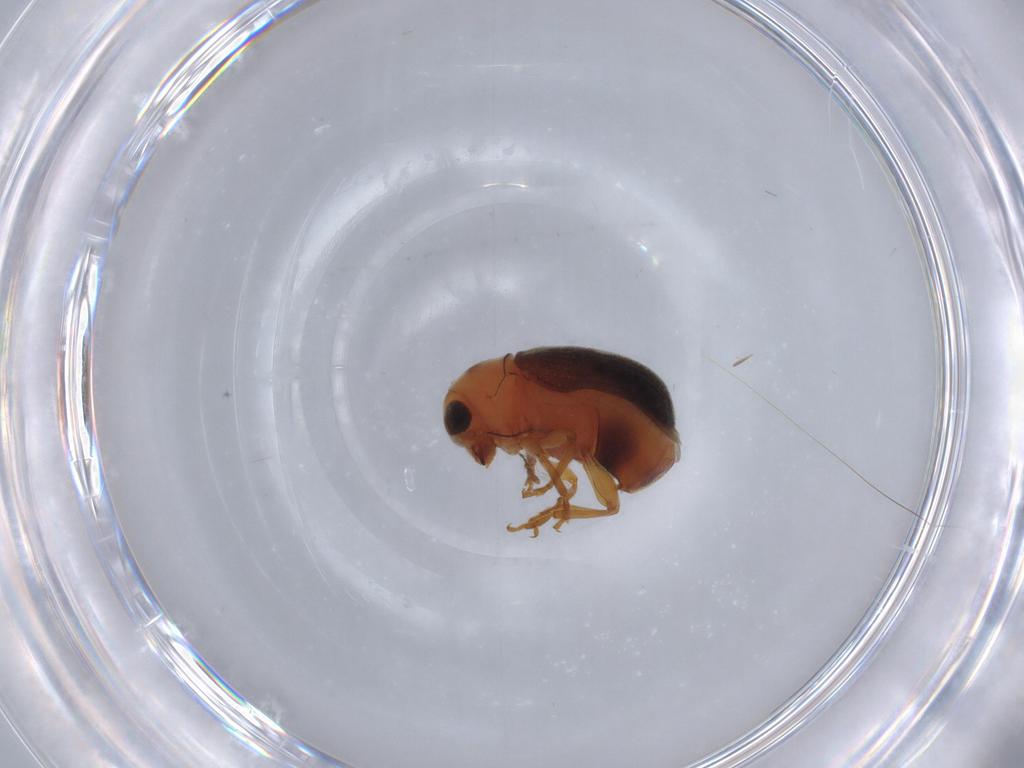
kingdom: Animalia
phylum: Arthropoda
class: Insecta
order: Coleoptera
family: Anthribidae
